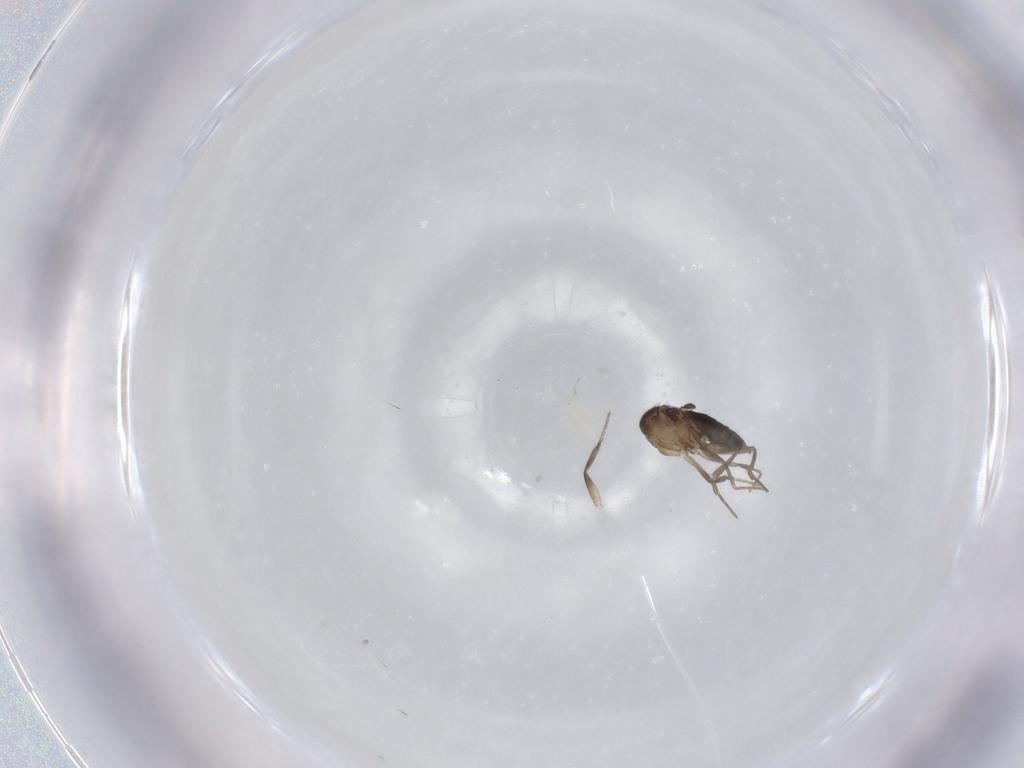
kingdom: Animalia
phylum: Arthropoda
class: Insecta
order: Diptera
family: Phoridae
